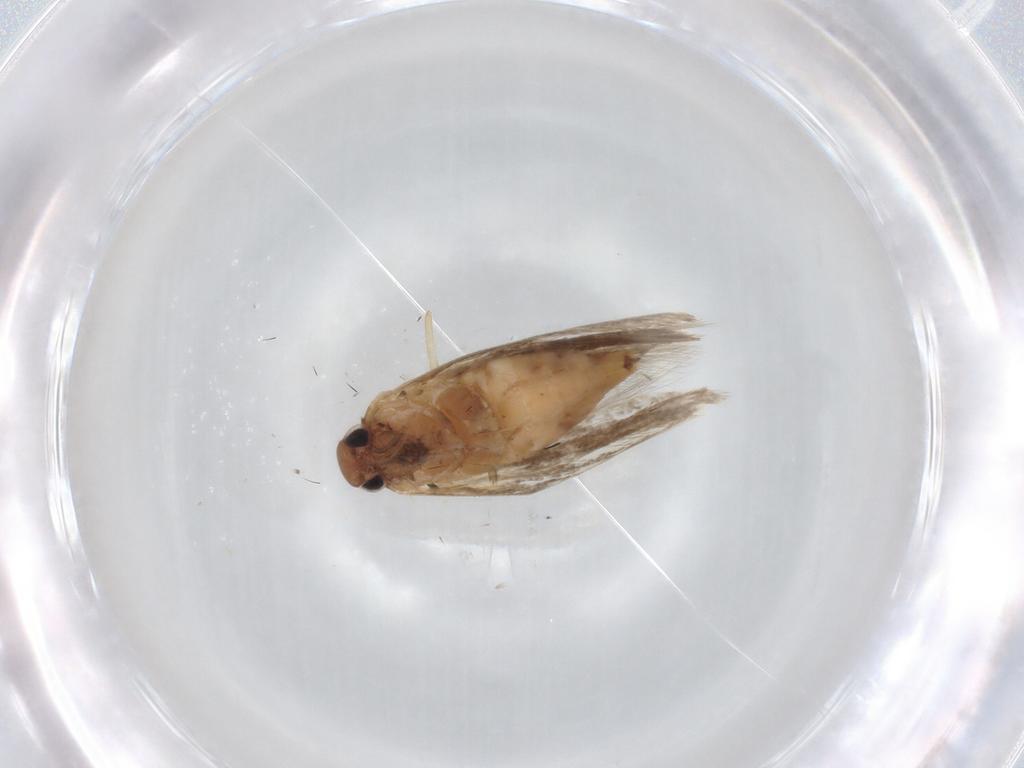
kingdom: Animalia
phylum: Arthropoda
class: Insecta
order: Lepidoptera
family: Gelechiidae
